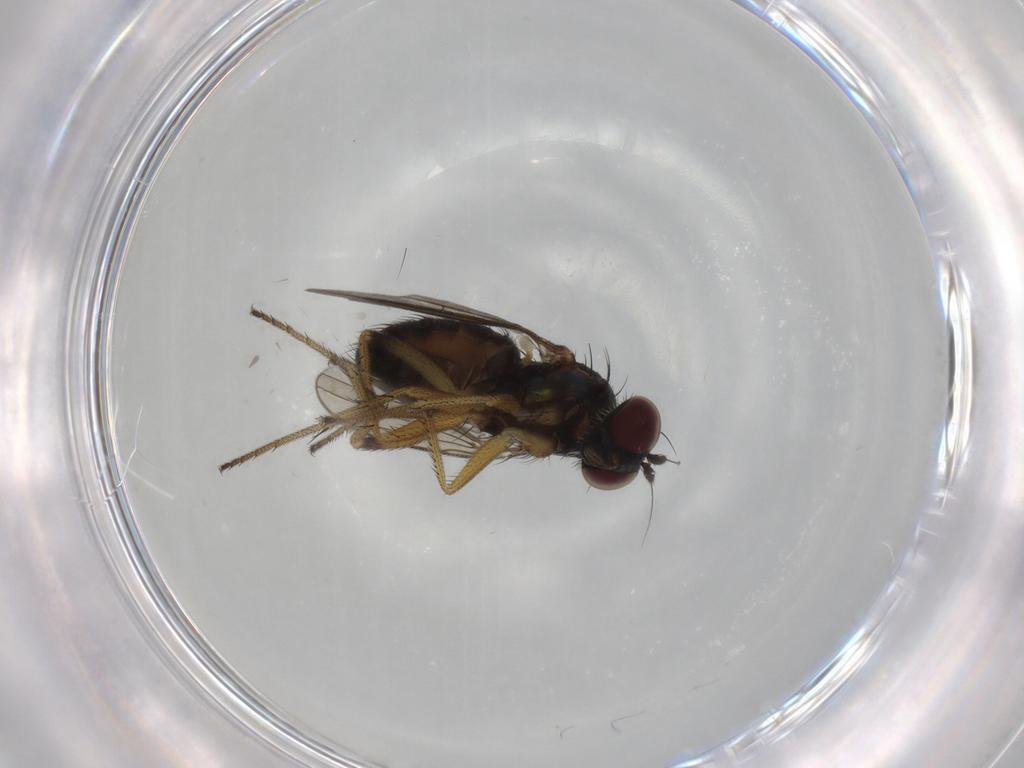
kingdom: Animalia
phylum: Arthropoda
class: Insecta
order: Diptera
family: Dolichopodidae
